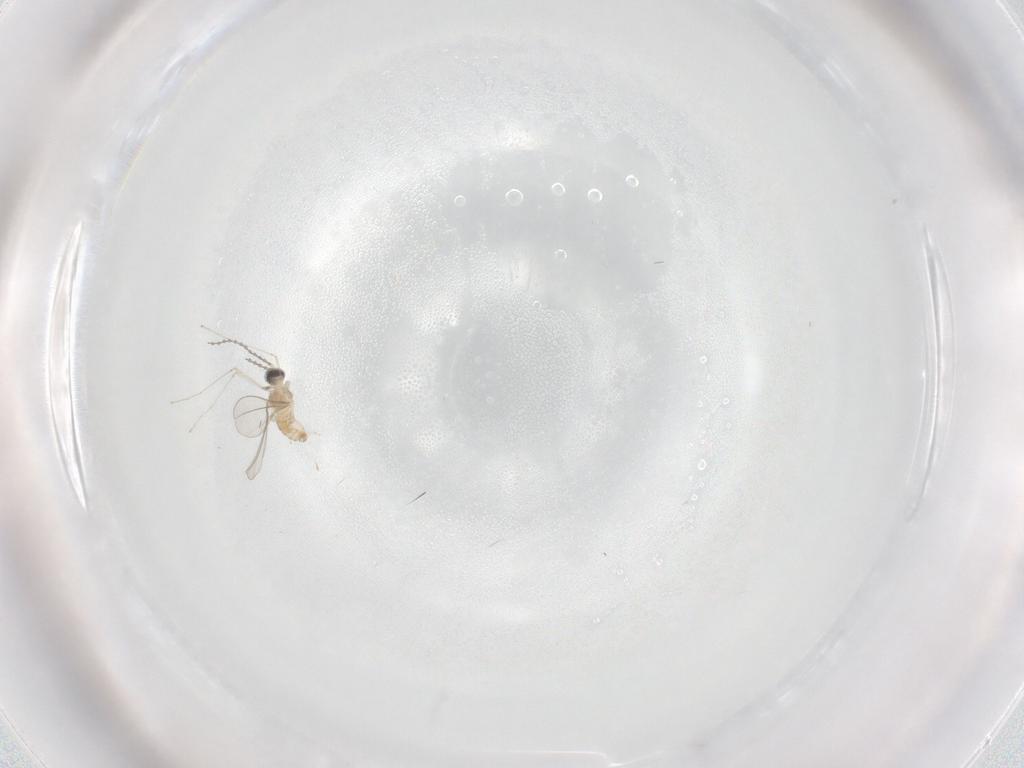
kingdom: Animalia
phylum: Arthropoda
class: Insecta
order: Diptera
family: Cecidomyiidae
